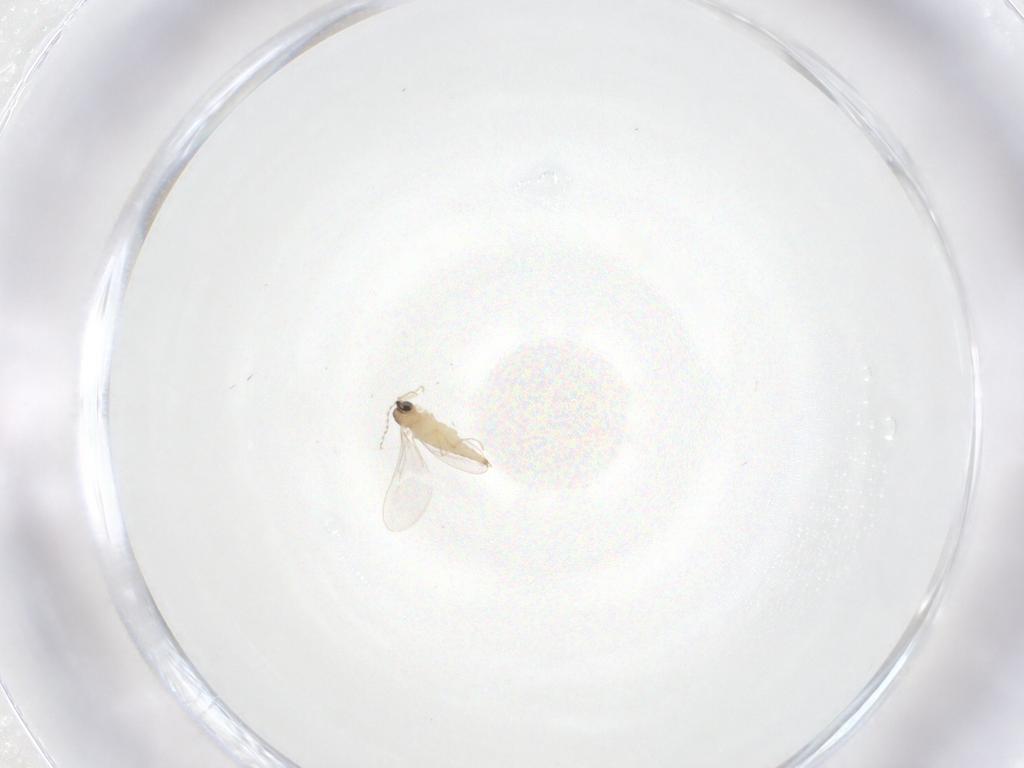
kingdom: Animalia
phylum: Arthropoda
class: Insecta
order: Diptera
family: Cecidomyiidae
